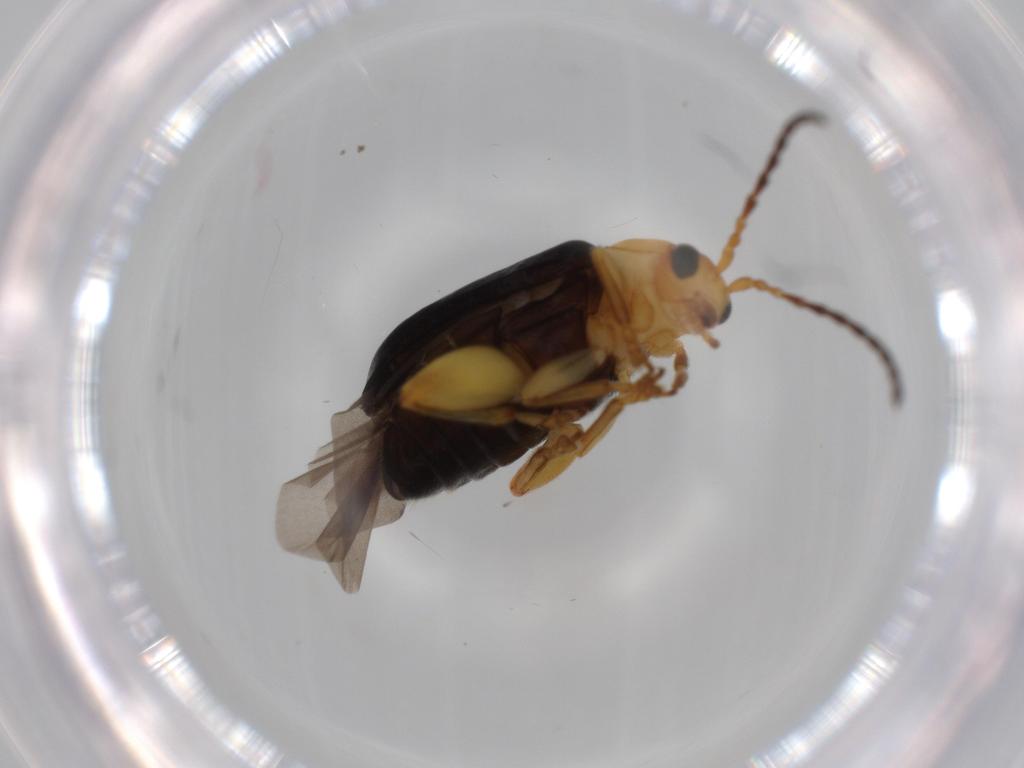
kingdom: Animalia
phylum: Arthropoda
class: Insecta
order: Coleoptera
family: Chrysomelidae
